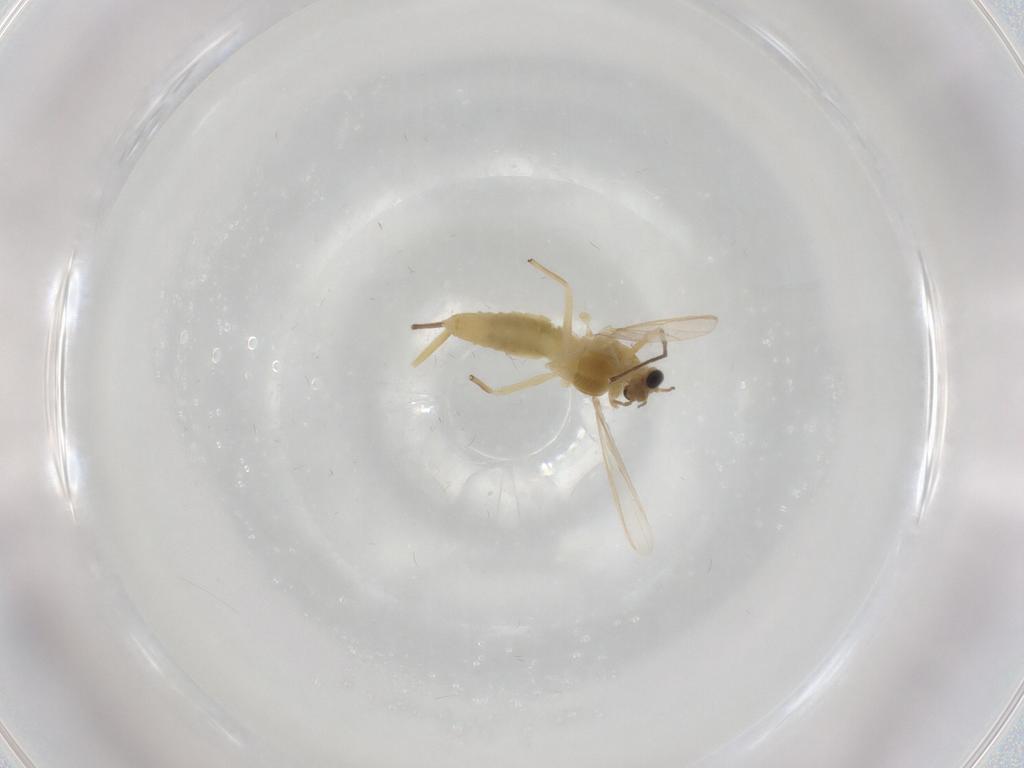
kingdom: Animalia
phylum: Arthropoda
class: Insecta
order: Diptera
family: Chironomidae
